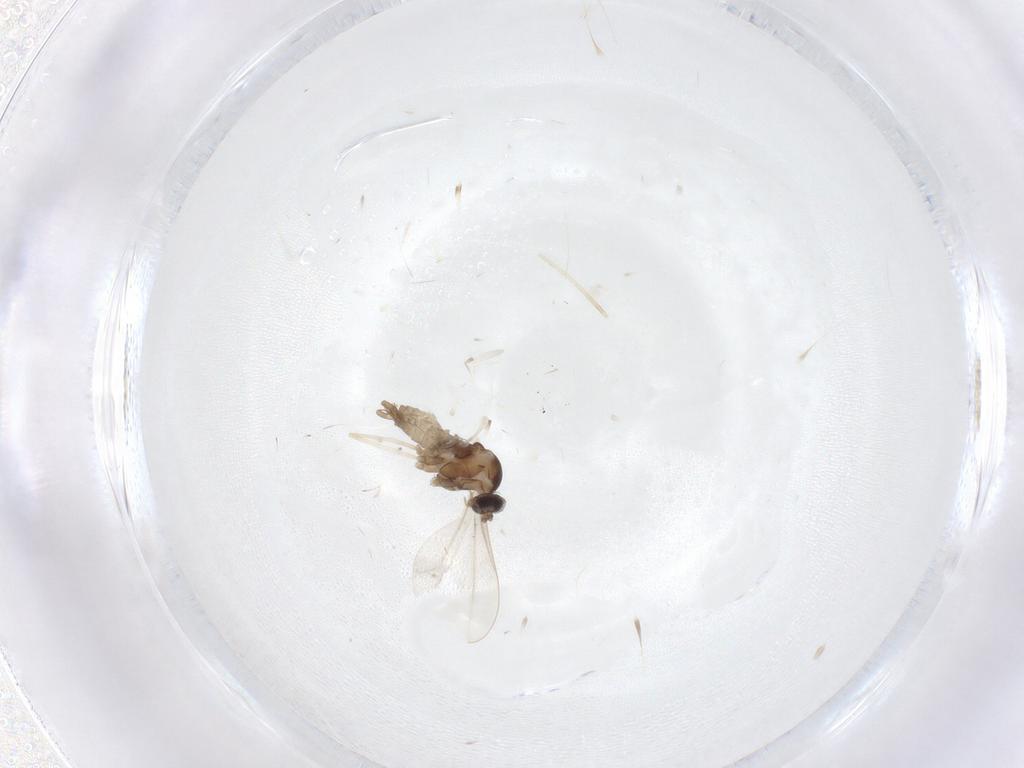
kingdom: Animalia
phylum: Arthropoda
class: Insecta
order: Diptera
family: Cecidomyiidae
